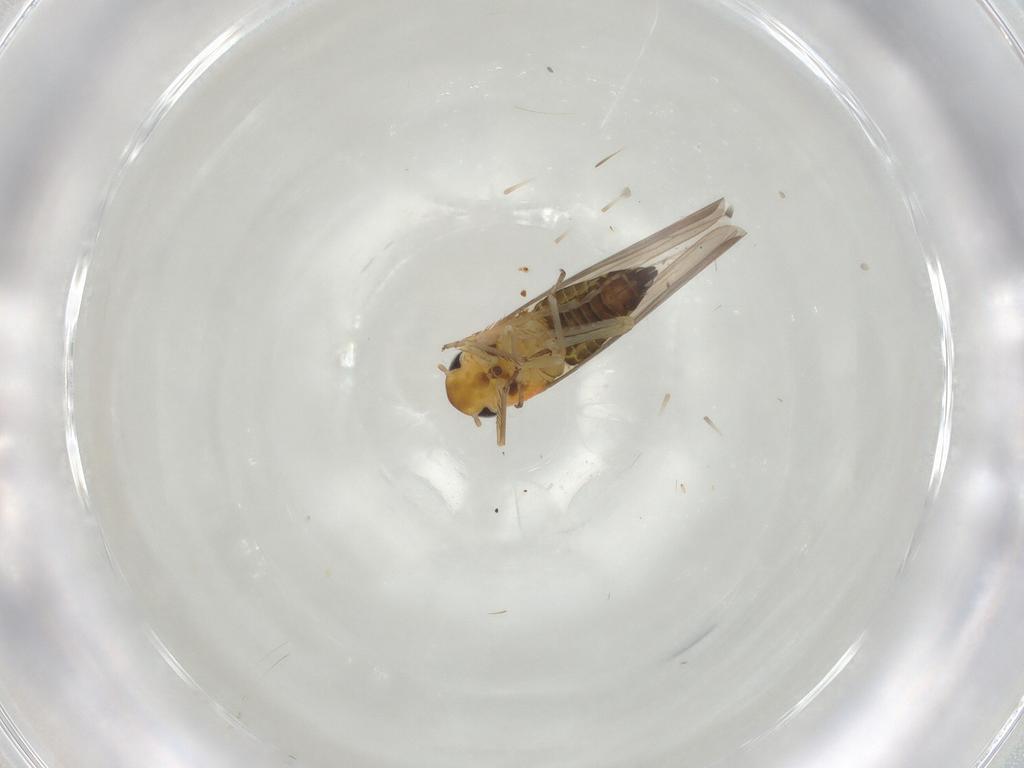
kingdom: Animalia
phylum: Arthropoda
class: Insecta
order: Hemiptera
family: Cicadellidae
